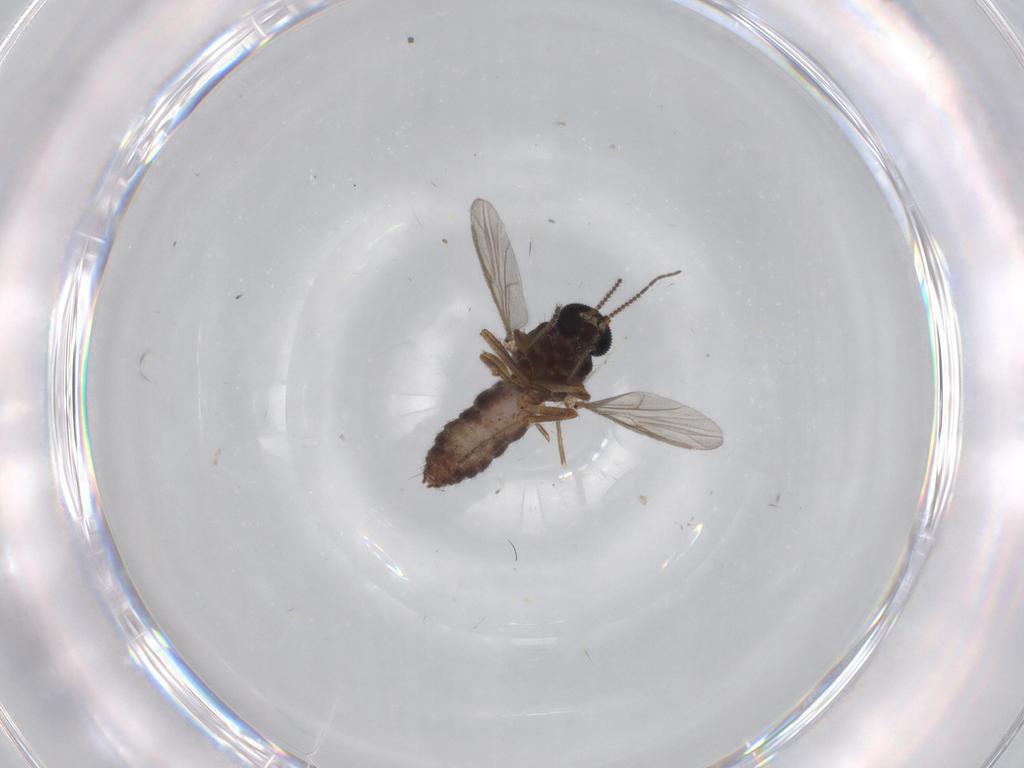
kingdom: Animalia
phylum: Arthropoda
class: Insecta
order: Diptera
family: Ceratopogonidae
